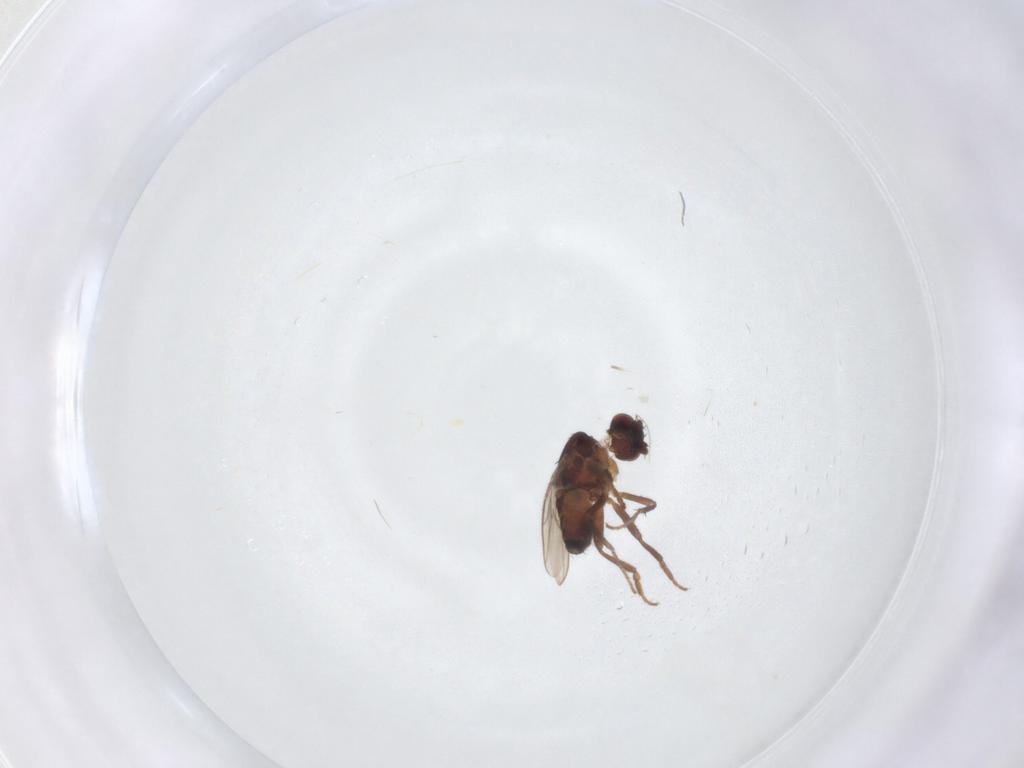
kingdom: Animalia
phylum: Arthropoda
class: Insecta
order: Diptera
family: Sphaeroceridae
